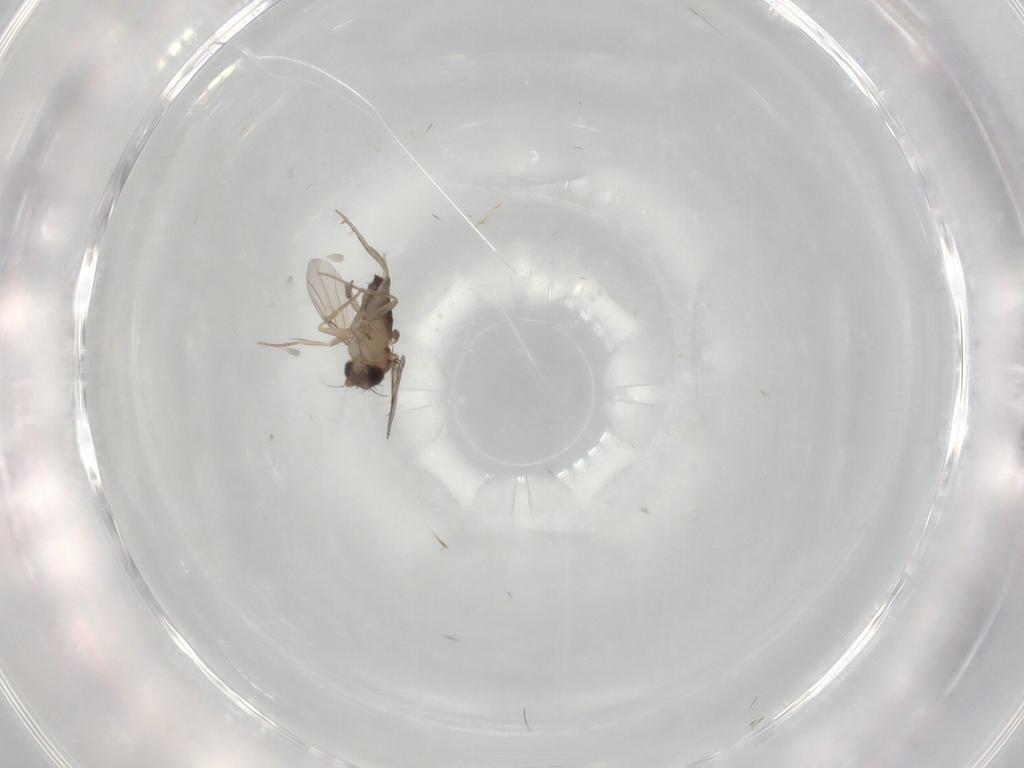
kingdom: Animalia
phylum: Arthropoda
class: Insecta
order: Diptera
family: Phoridae
